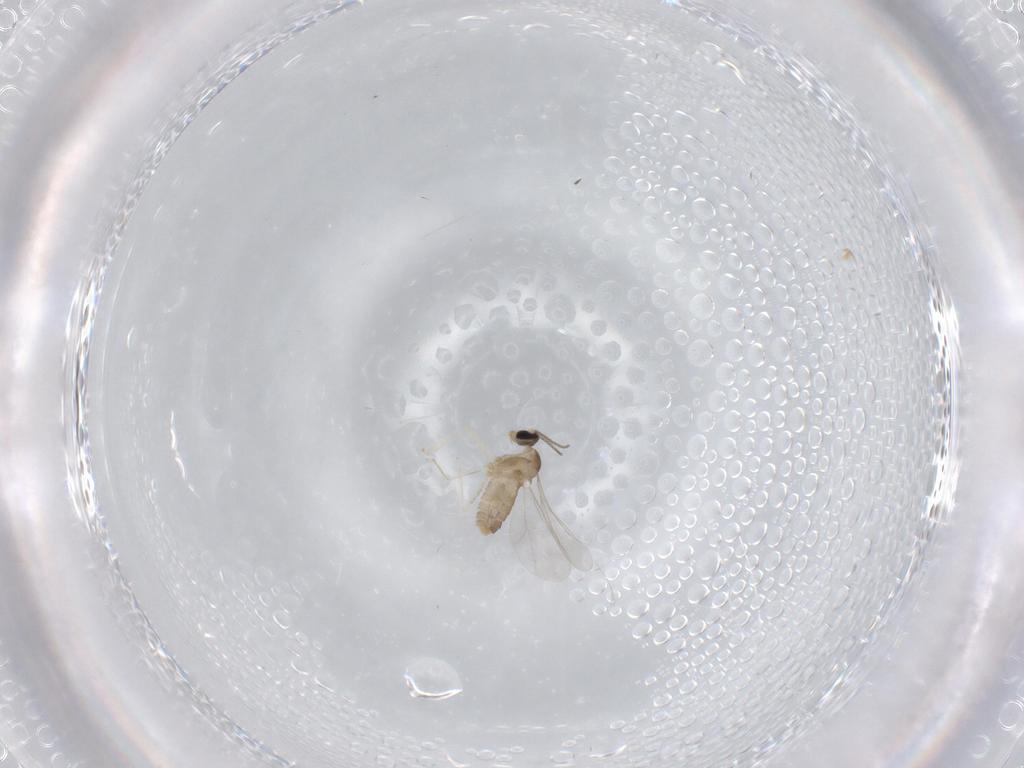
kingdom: Animalia
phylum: Arthropoda
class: Insecta
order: Diptera
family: Cecidomyiidae
